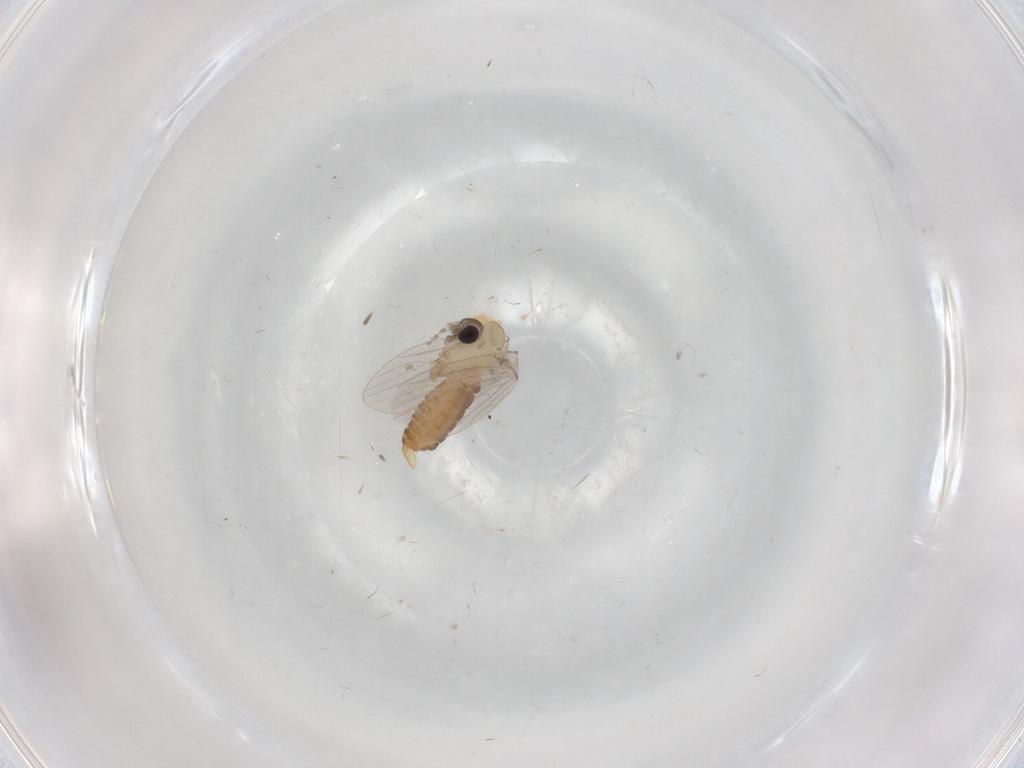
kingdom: Animalia
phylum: Arthropoda
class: Insecta
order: Diptera
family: Psychodidae
